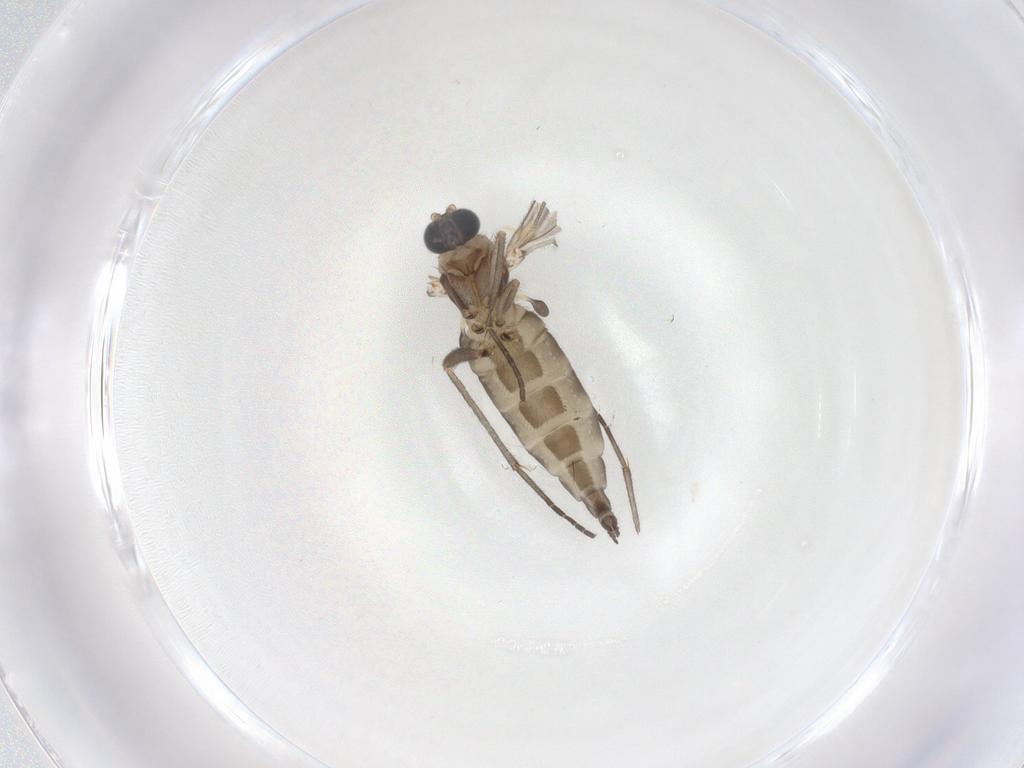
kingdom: Animalia
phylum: Arthropoda
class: Insecta
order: Diptera
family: Sciaridae
